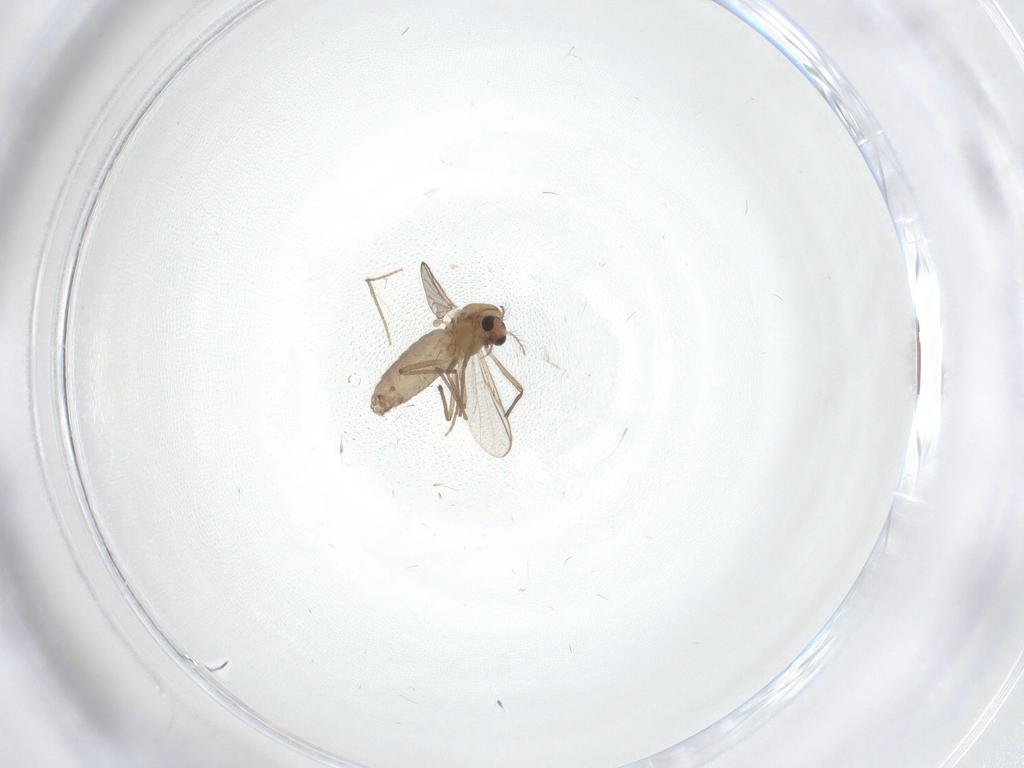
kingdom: Animalia
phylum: Arthropoda
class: Insecta
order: Diptera
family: Chironomidae
